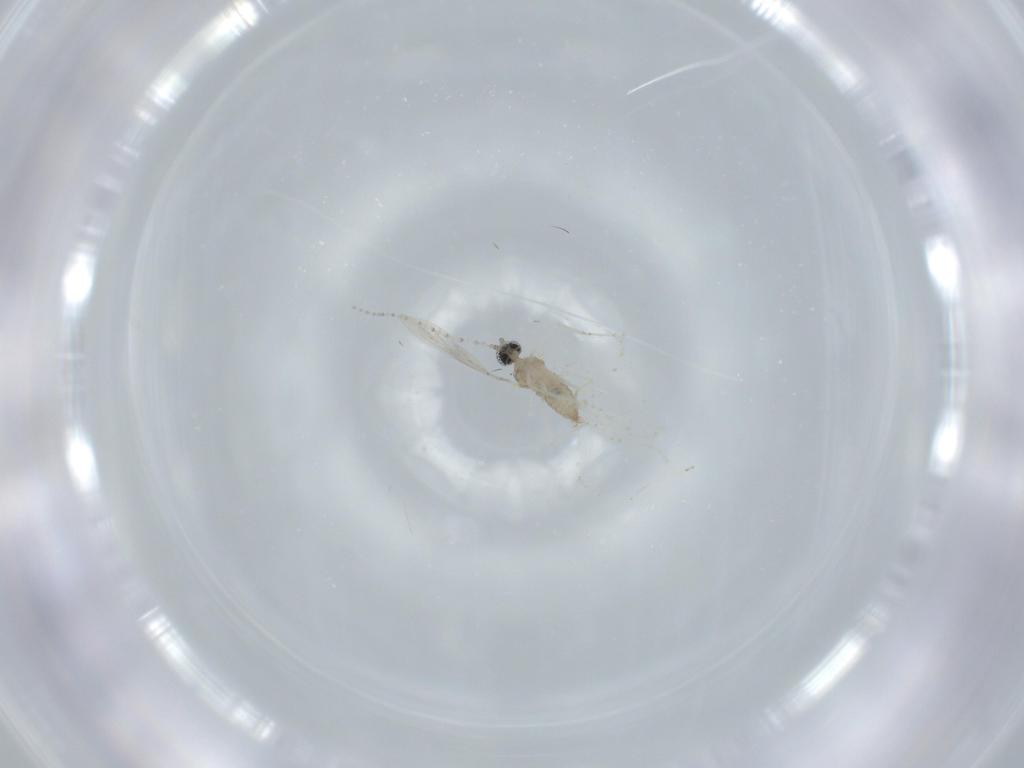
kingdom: Animalia
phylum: Arthropoda
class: Insecta
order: Diptera
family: Cecidomyiidae
